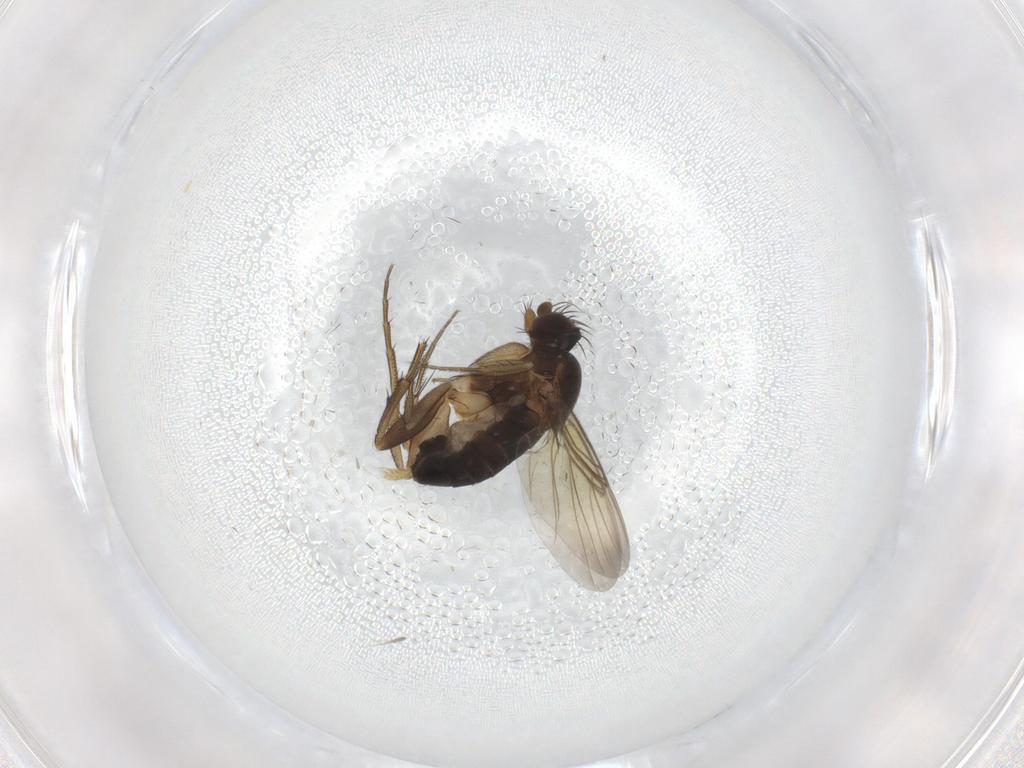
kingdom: Animalia
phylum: Arthropoda
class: Insecta
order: Diptera
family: Phoridae
